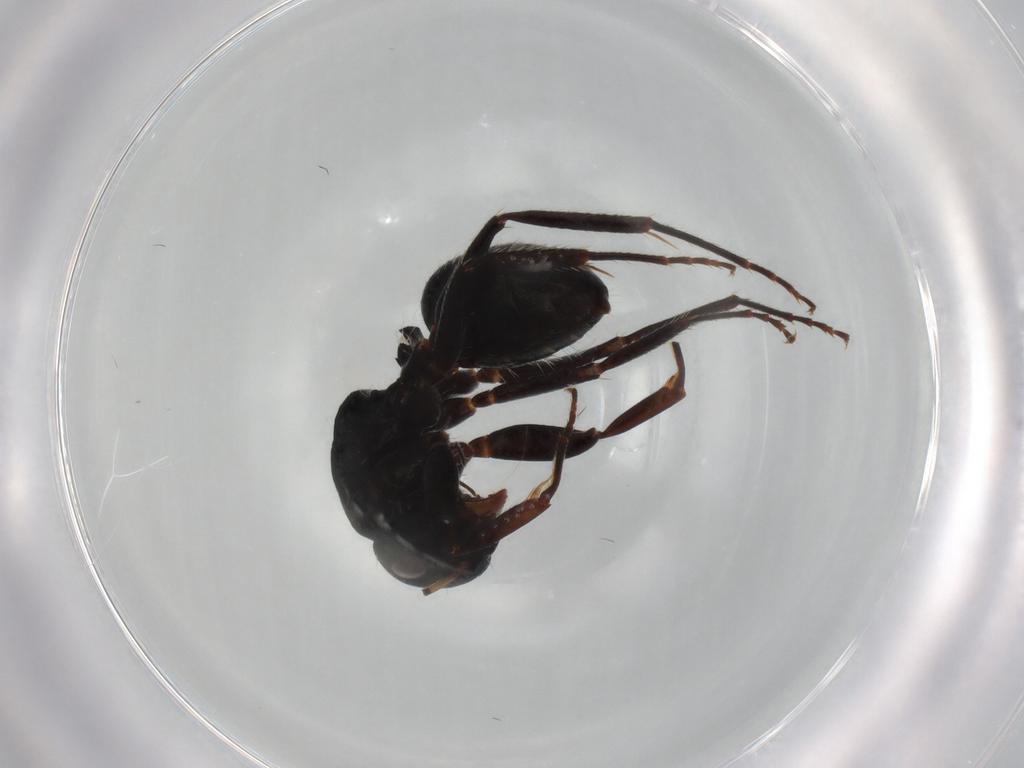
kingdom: Animalia
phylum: Arthropoda
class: Insecta
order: Hymenoptera
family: Formicidae
